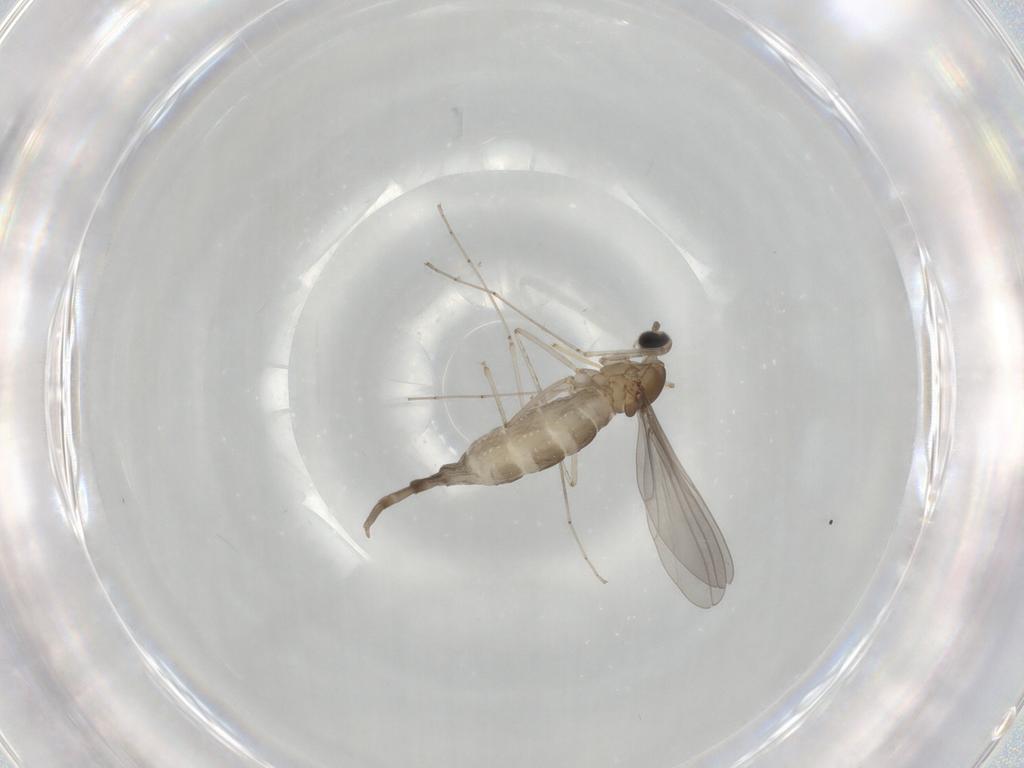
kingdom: Animalia
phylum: Arthropoda
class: Insecta
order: Diptera
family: Cecidomyiidae
